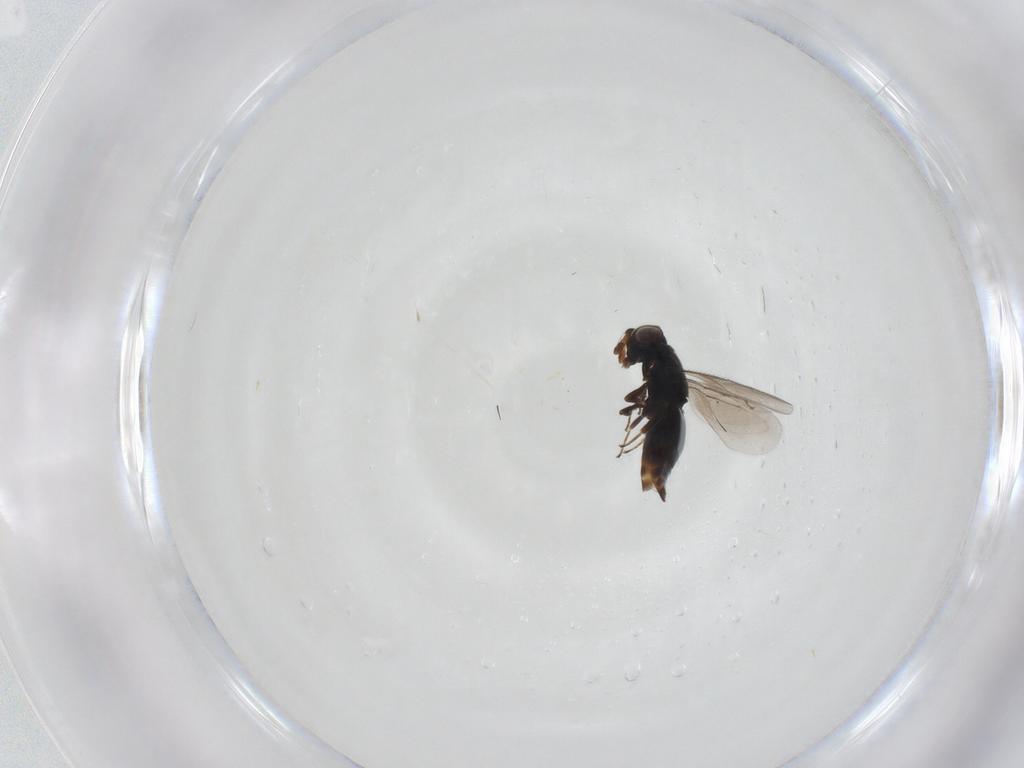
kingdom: Animalia
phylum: Arthropoda
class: Insecta
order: Hymenoptera
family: Eunotidae
